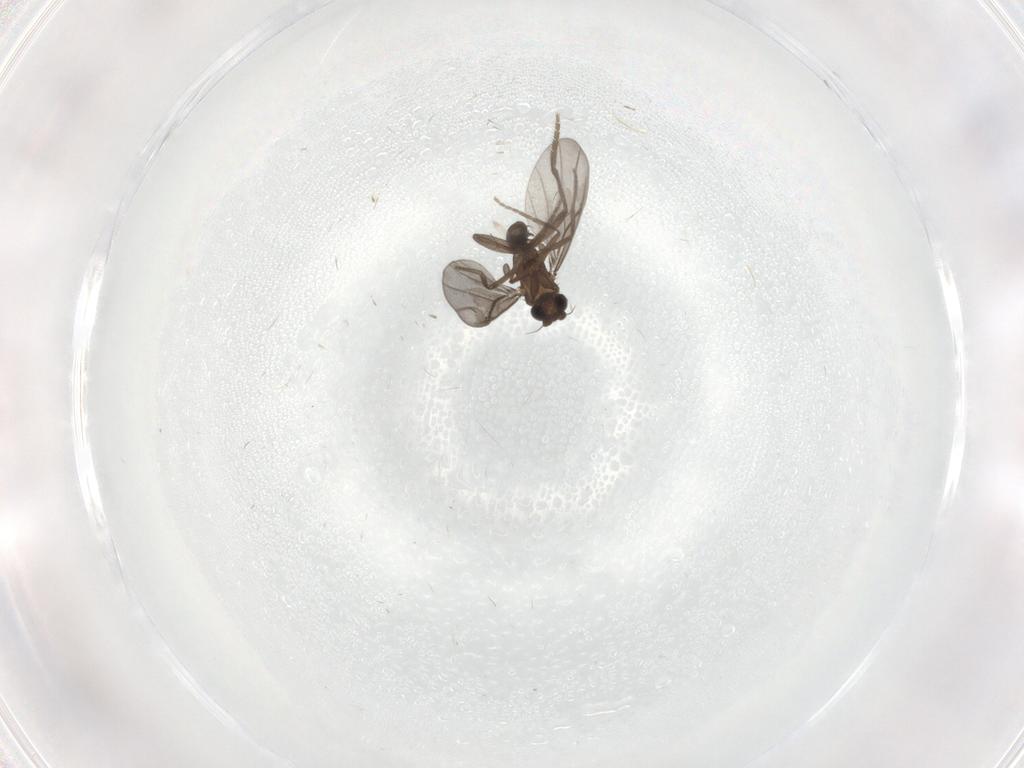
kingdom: Animalia
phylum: Arthropoda
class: Insecta
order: Diptera
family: Phoridae
